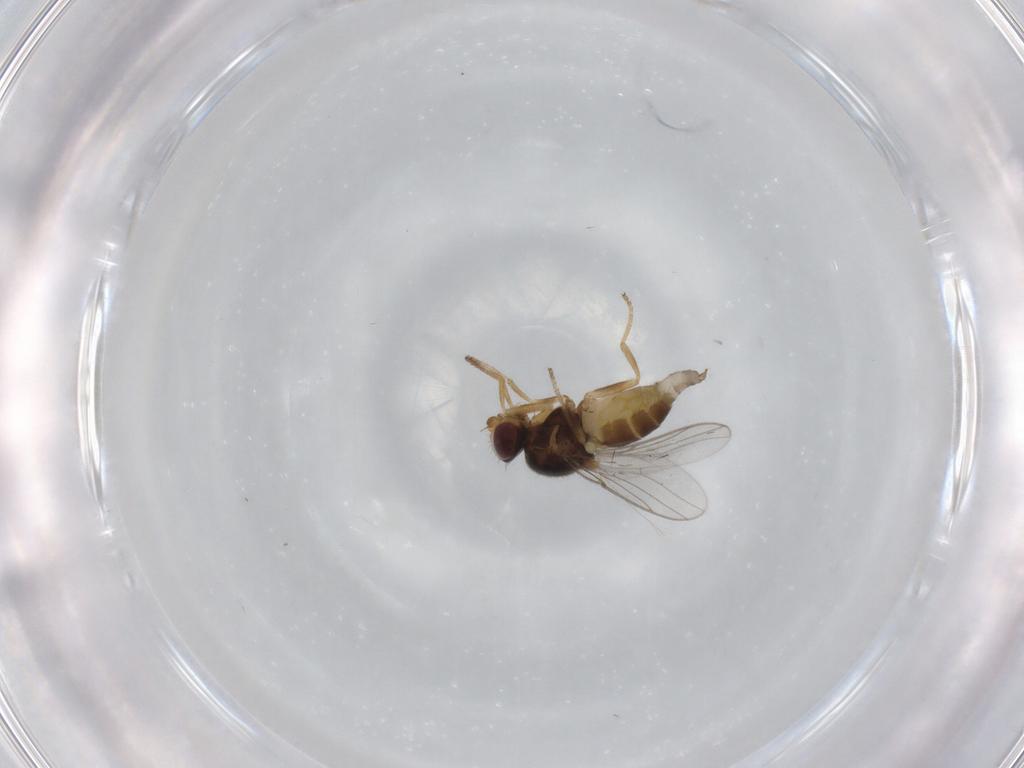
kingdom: Animalia
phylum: Arthropoda
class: Insecta
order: Diptera
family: Chloropidae
